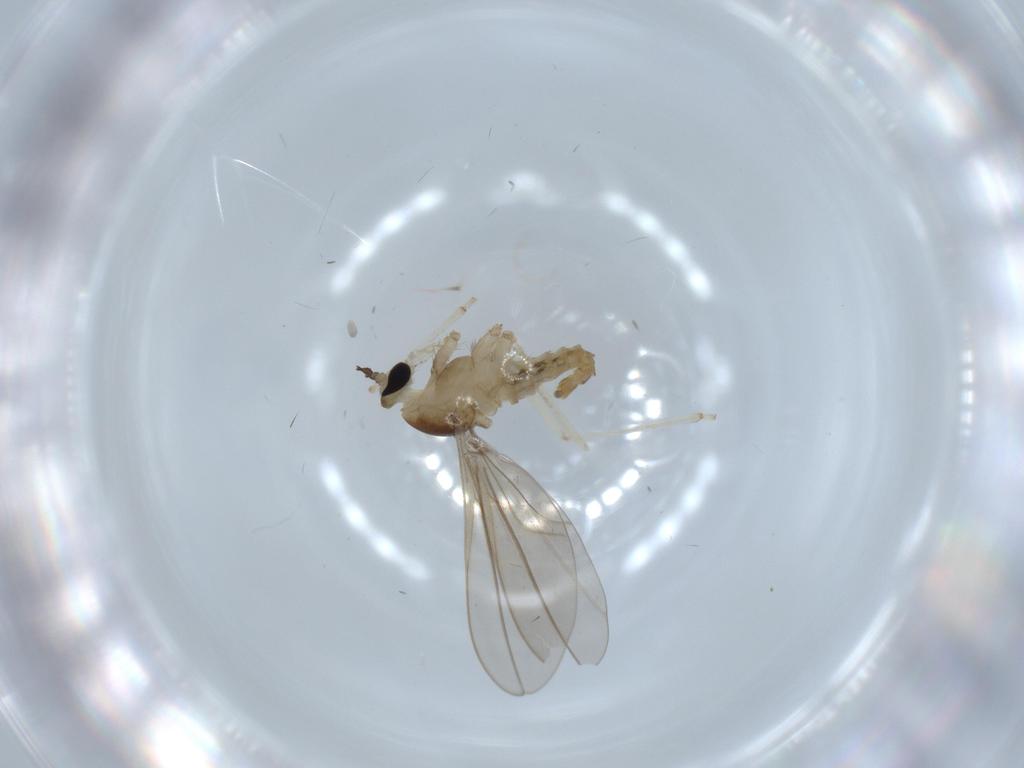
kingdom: Animalia
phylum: Arthropoda
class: Insecta
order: Diptera
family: Cecidomyiidae
